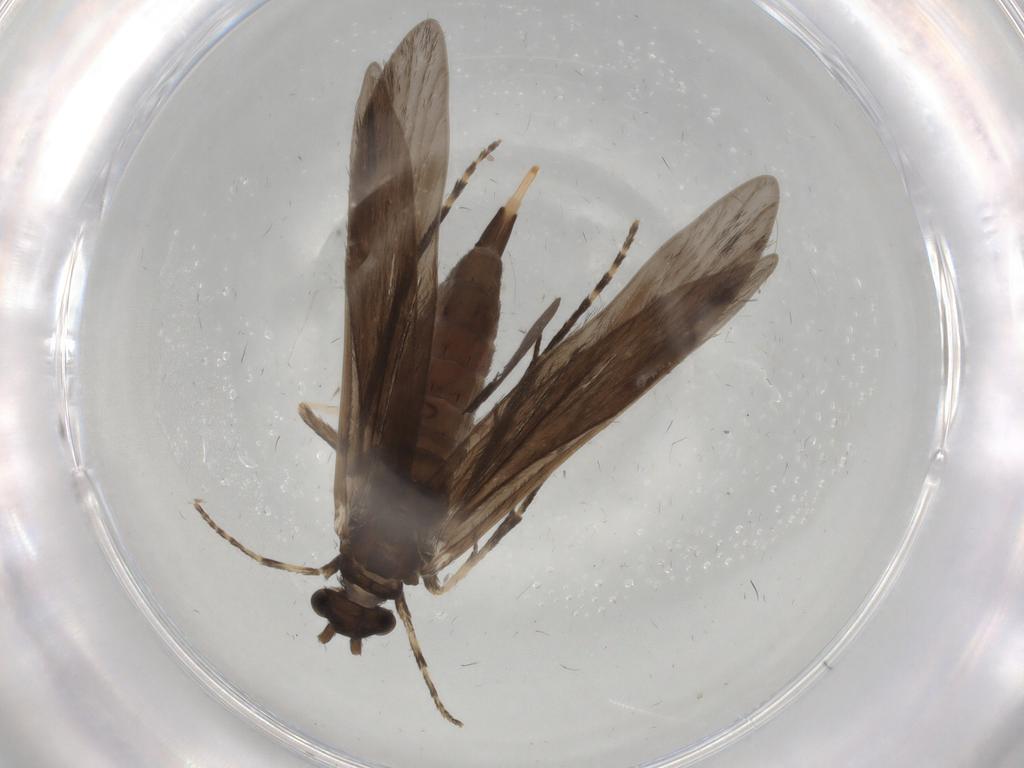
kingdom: Animalia
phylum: Arthropoda
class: Insecta
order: Trichoptera
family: Xiphocentronidae
